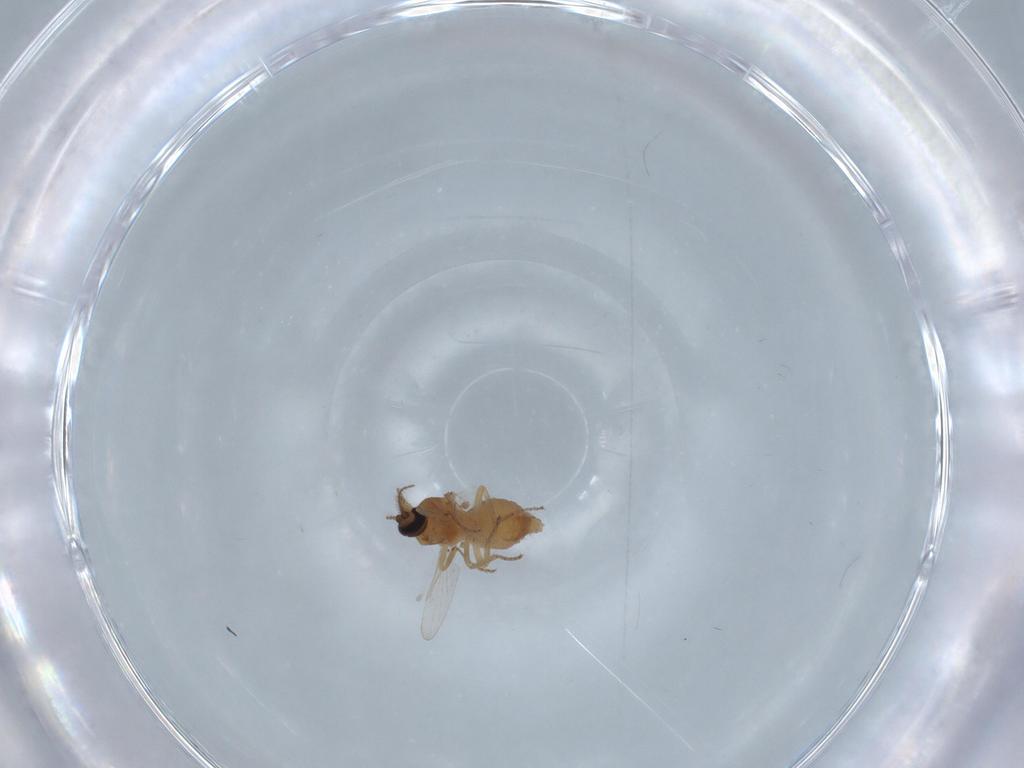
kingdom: Animalia
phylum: Arthropoda
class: Insecta
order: Diptera
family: Ceratopogonidae
